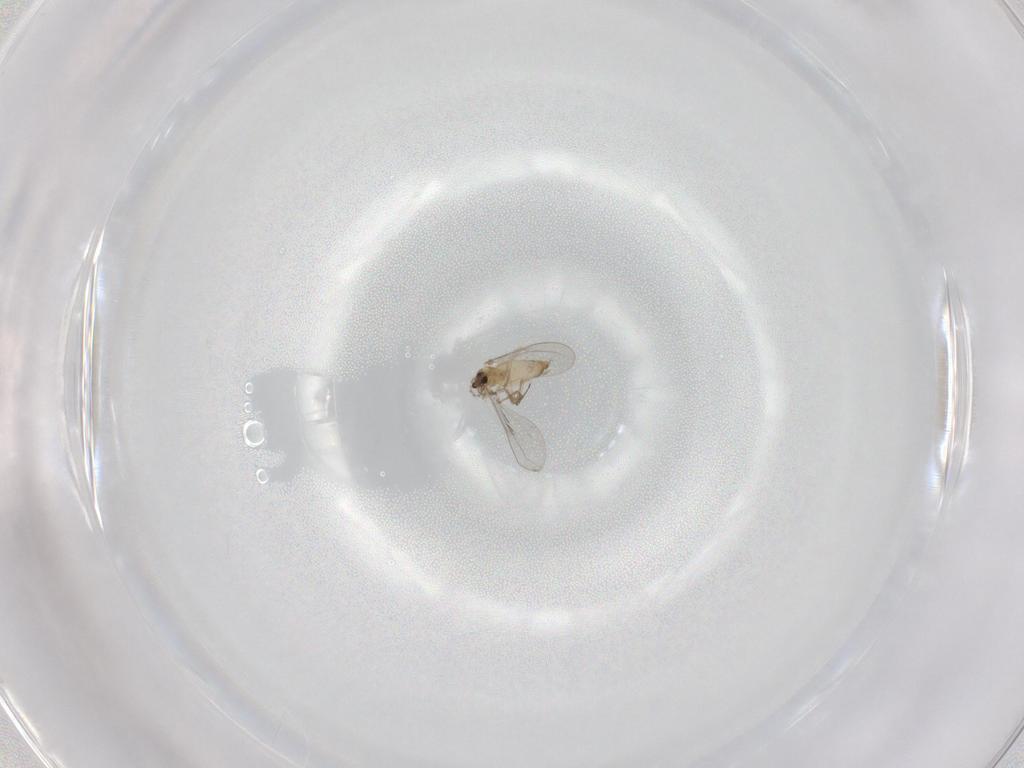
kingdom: Animalia
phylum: Arthropoda
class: Insecta
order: Diptera
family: Cecidomyiidae
